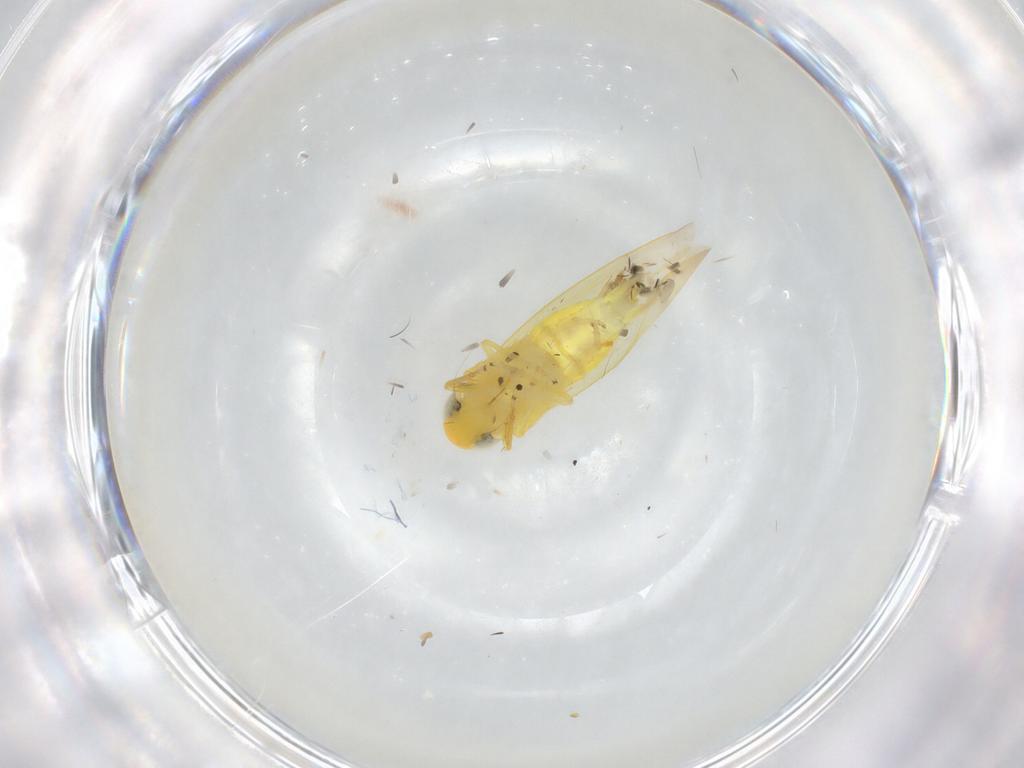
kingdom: Animalia
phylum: Arthropoda
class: Insecta
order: Hemiptera
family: Cicadellidae
